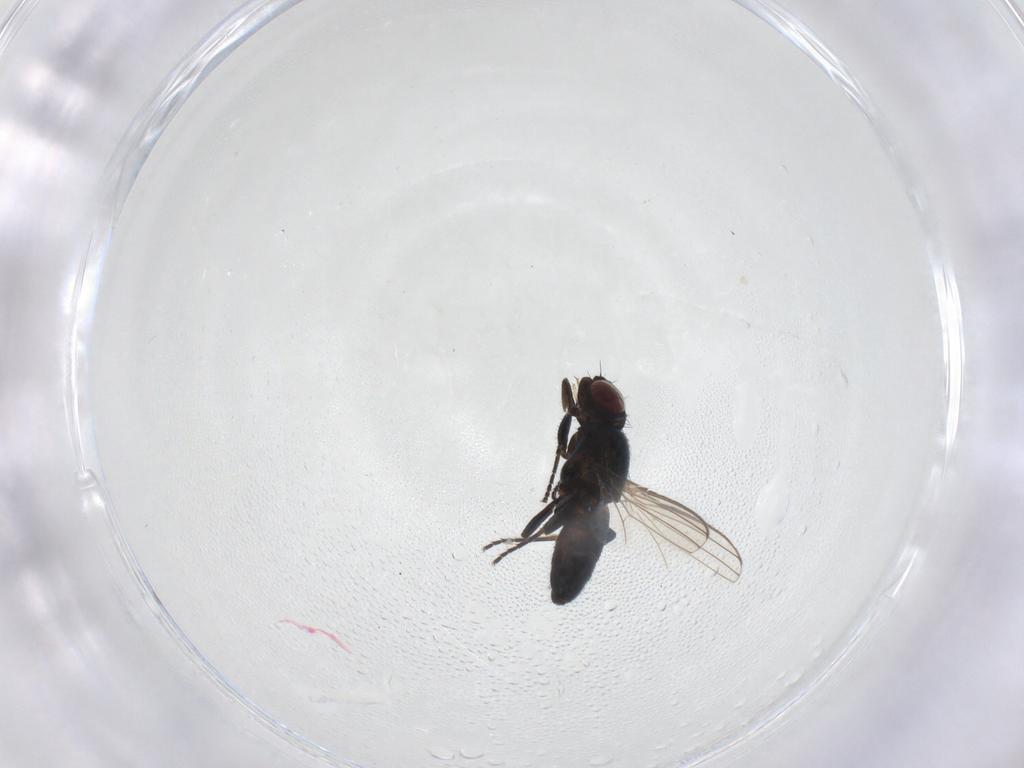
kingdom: Animalia
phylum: Arthropoda
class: Insecta
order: Diptera
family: Milichiidae
